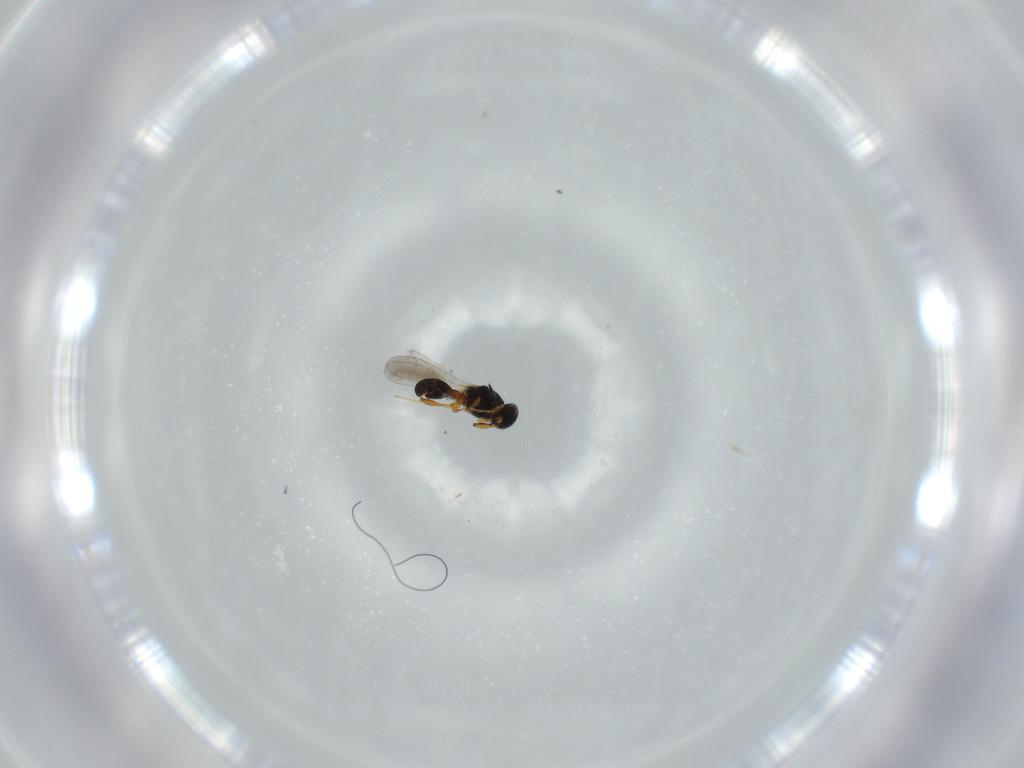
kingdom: Animalia
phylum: Arthropoda
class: Insecta
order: Hymenoptera
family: Platygastridae
